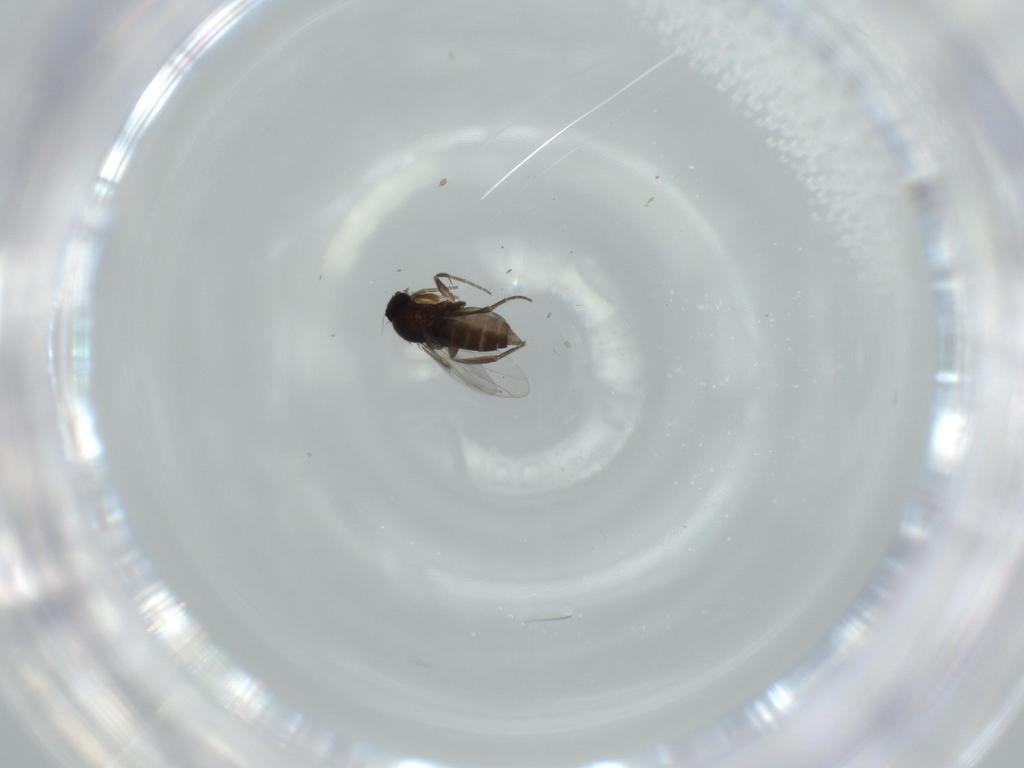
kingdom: Animalia
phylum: Arthropoda
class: Insecta
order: Diptera
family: Phoridae
